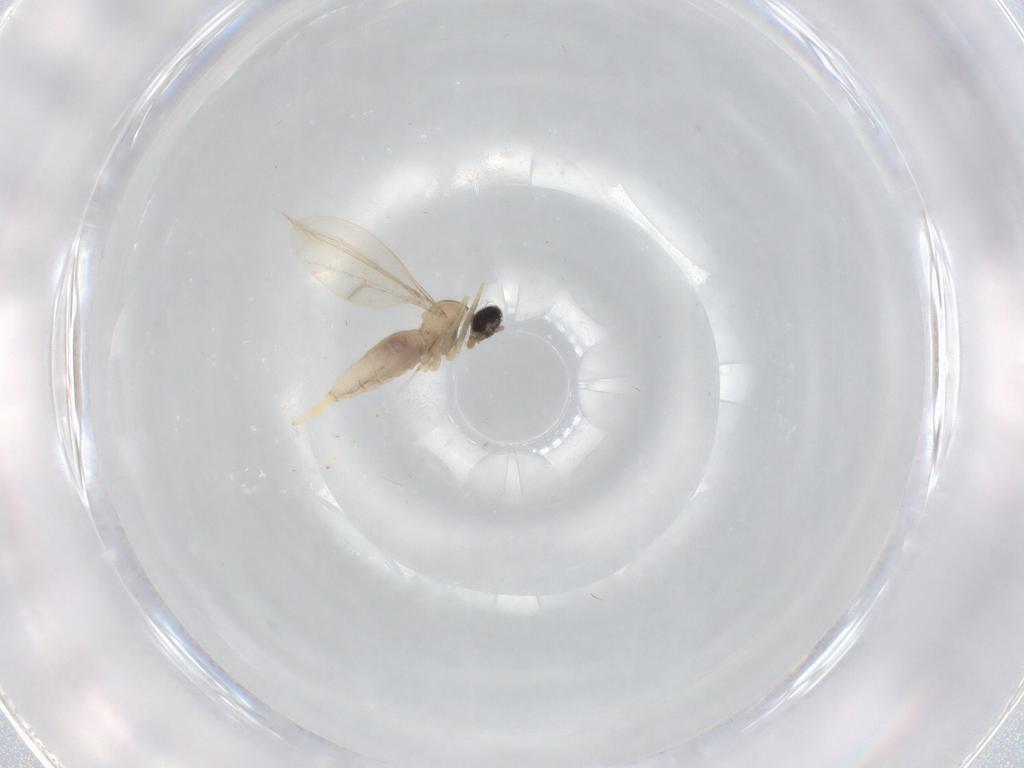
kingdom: Animalia
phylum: Arthropoda
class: Insecta
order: Diptera
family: Cecidomyiidae
